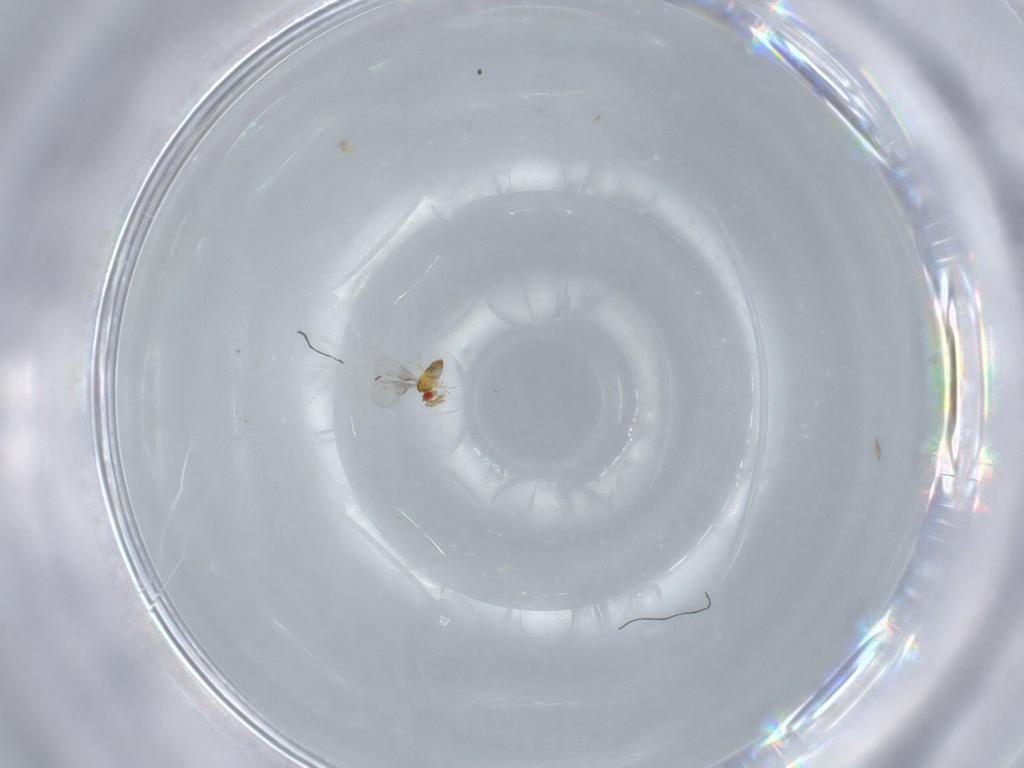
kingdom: Animalia
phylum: Arthropoda
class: Insecta
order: Hymenoptera
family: Trichogrammatidae
